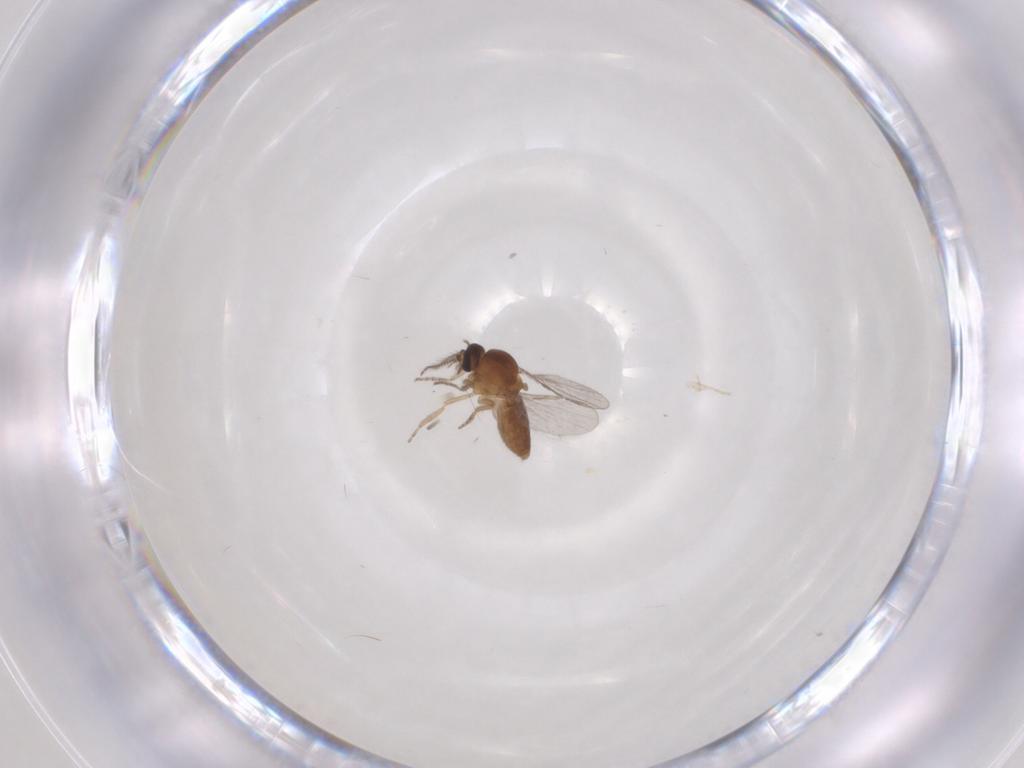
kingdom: Animalia
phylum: Arthropoda
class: Insecta
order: Diptera
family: Ceratopogonidae
